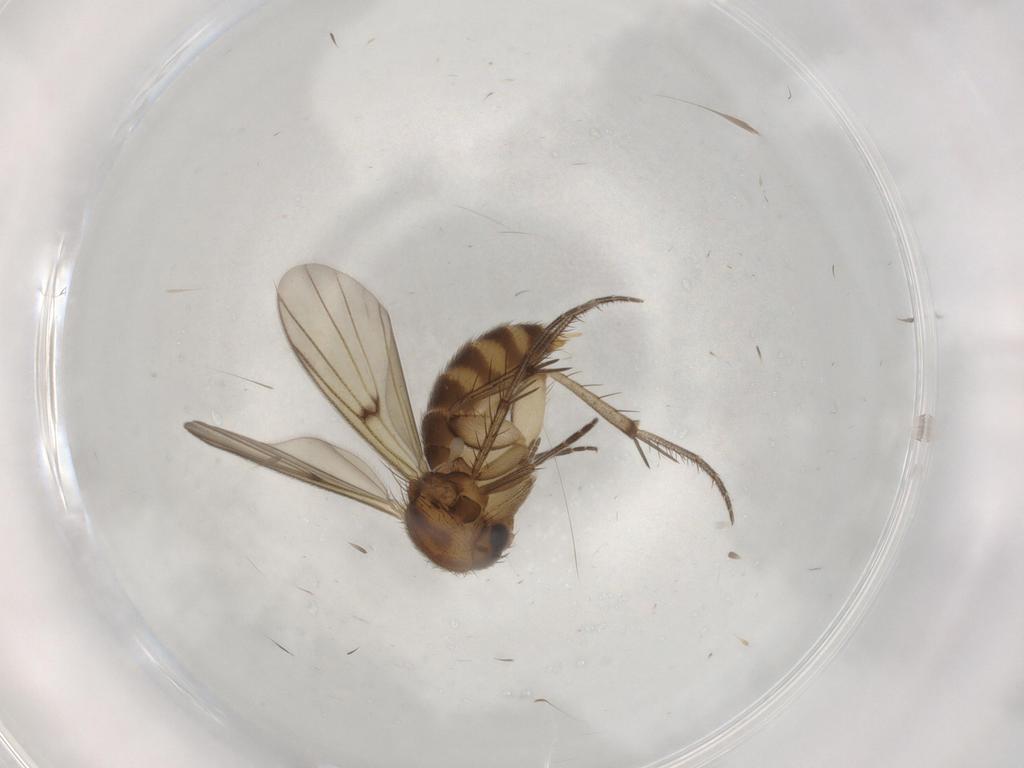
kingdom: Animalia
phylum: Arthropoda
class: Insecta
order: Diptera
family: Mycetophilidae
